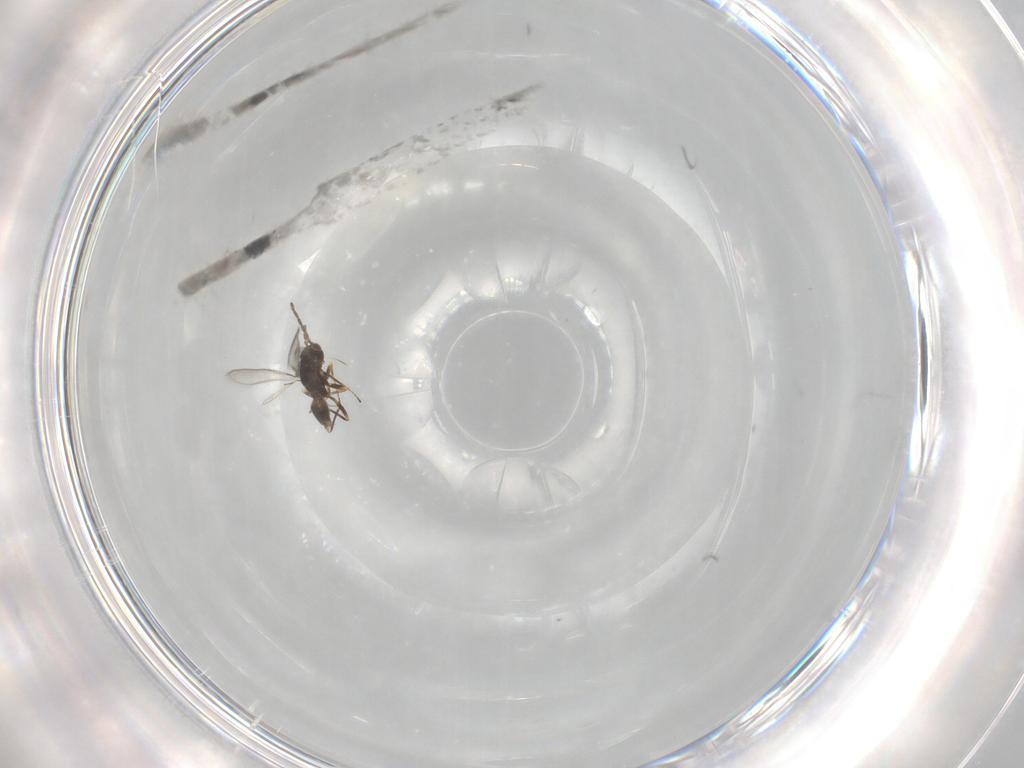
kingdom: Animalia
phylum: Arthropoda
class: Insecta
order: Hymenoptera
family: Mymaridae
